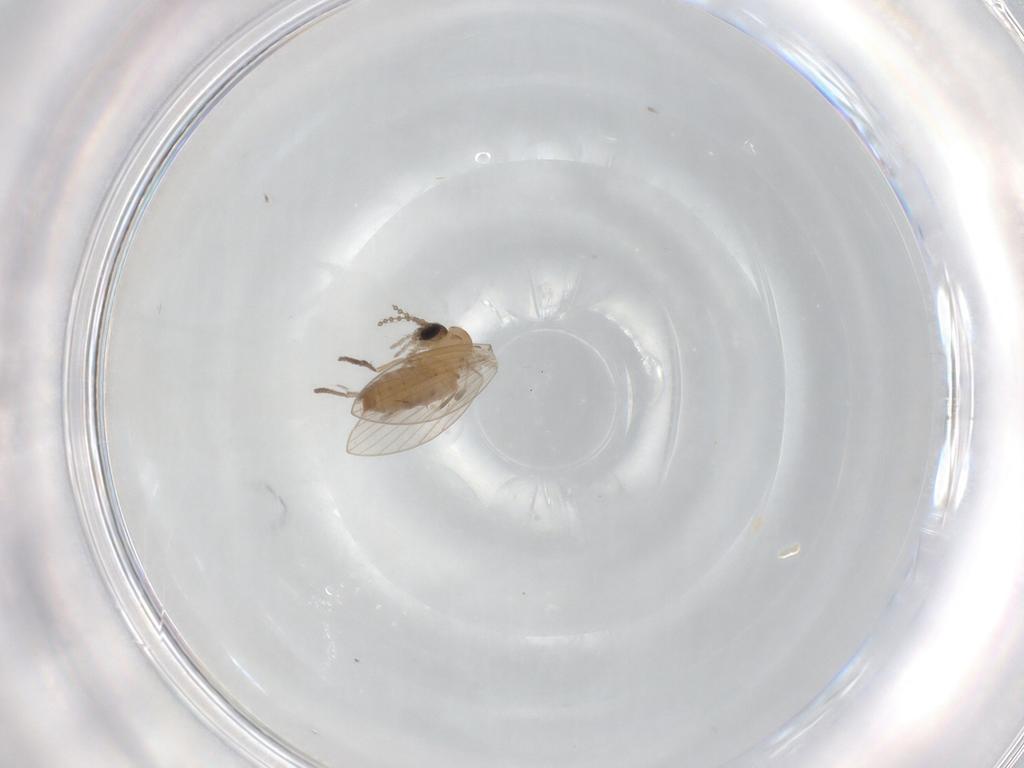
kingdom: Animalia
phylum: Arthropoda
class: Insecta
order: Diptera
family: Psychodidae
